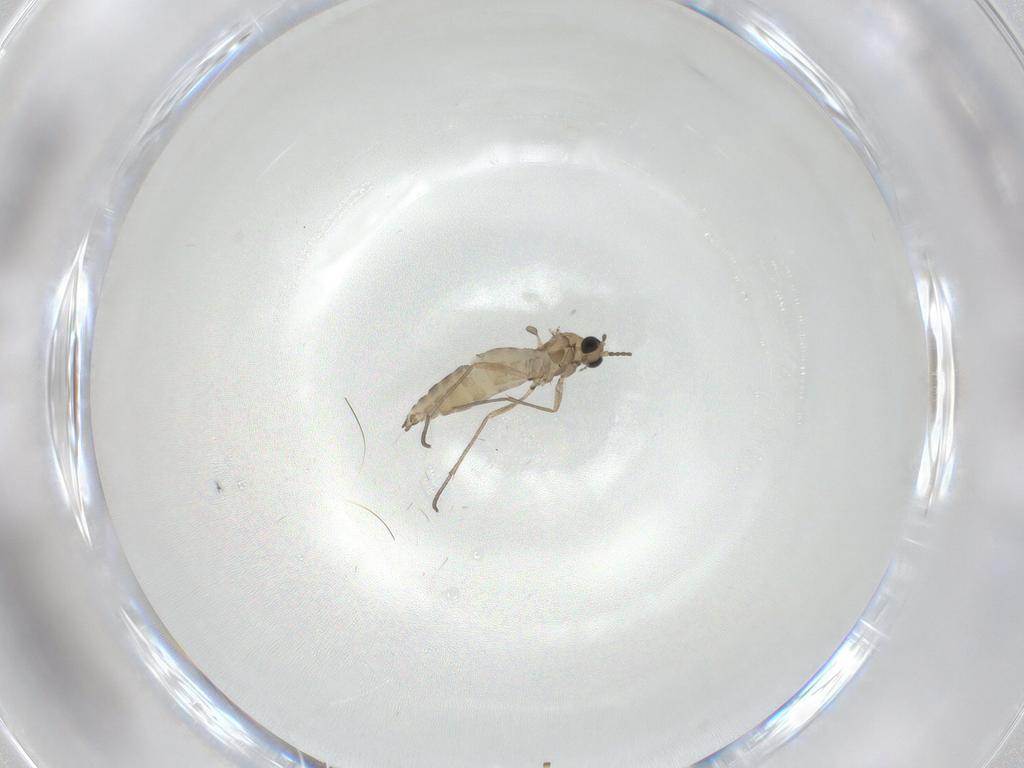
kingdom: Animalia
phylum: Arthropoda
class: Insecta
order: Diptera
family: Sciaridae
